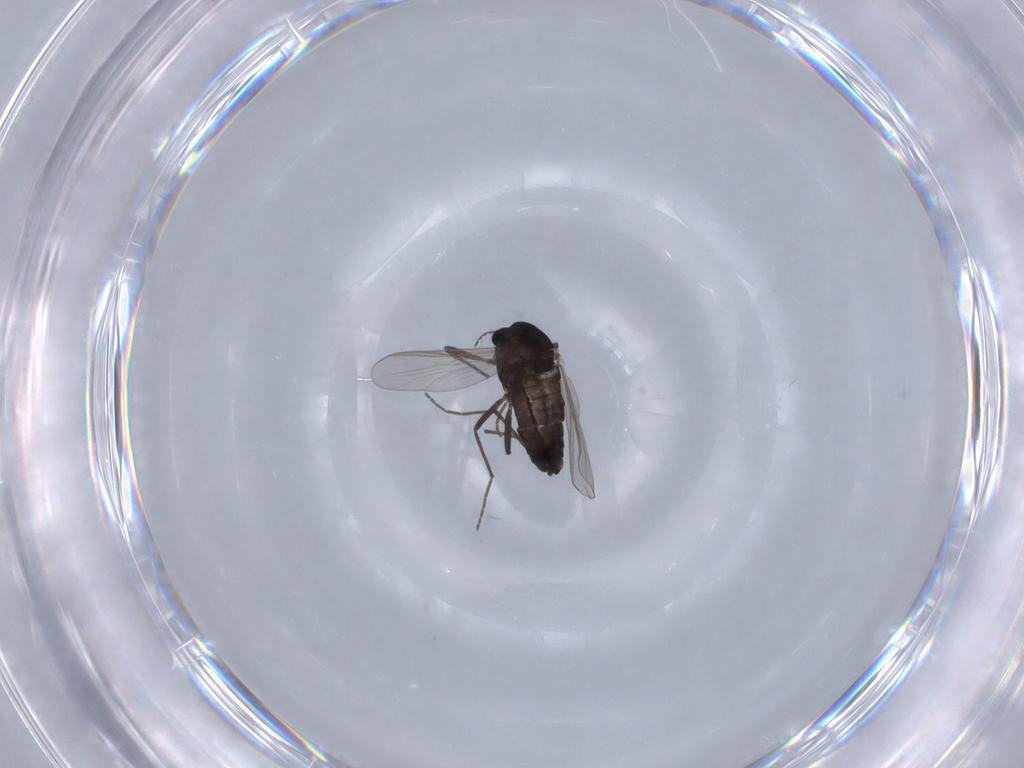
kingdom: Animalia
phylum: Arthropoda
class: Insecta
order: Diptera
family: Chironomidae
